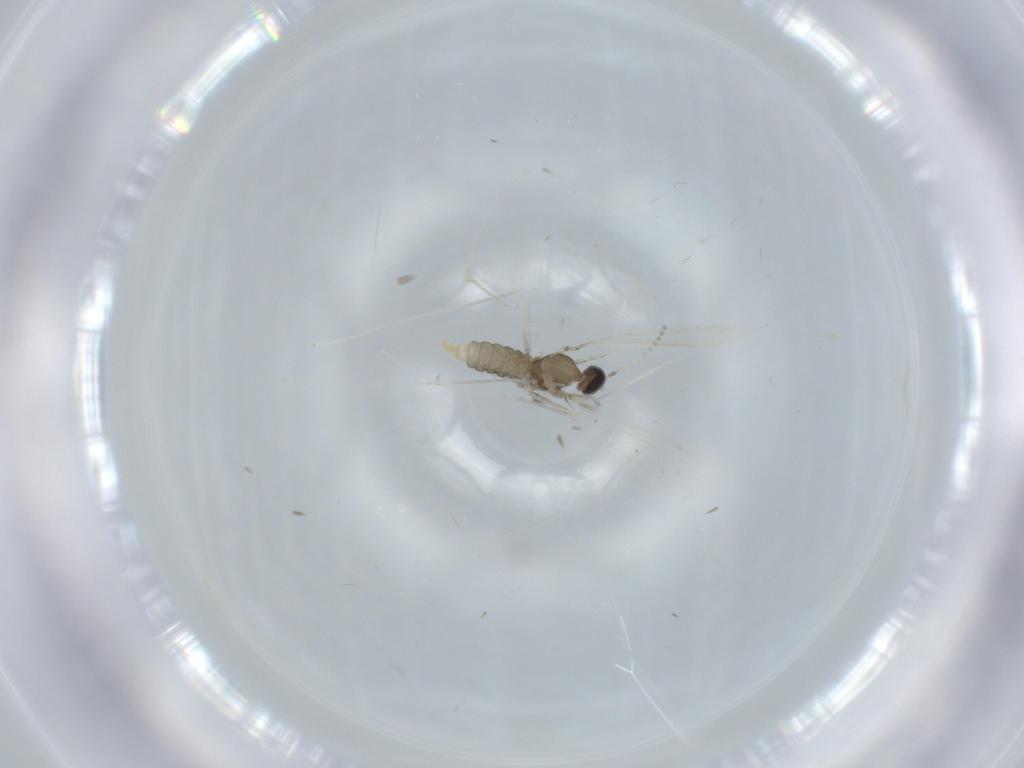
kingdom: Animalia
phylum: Arthropoda
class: Insecta
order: Diptera
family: Cecidomyiidae
